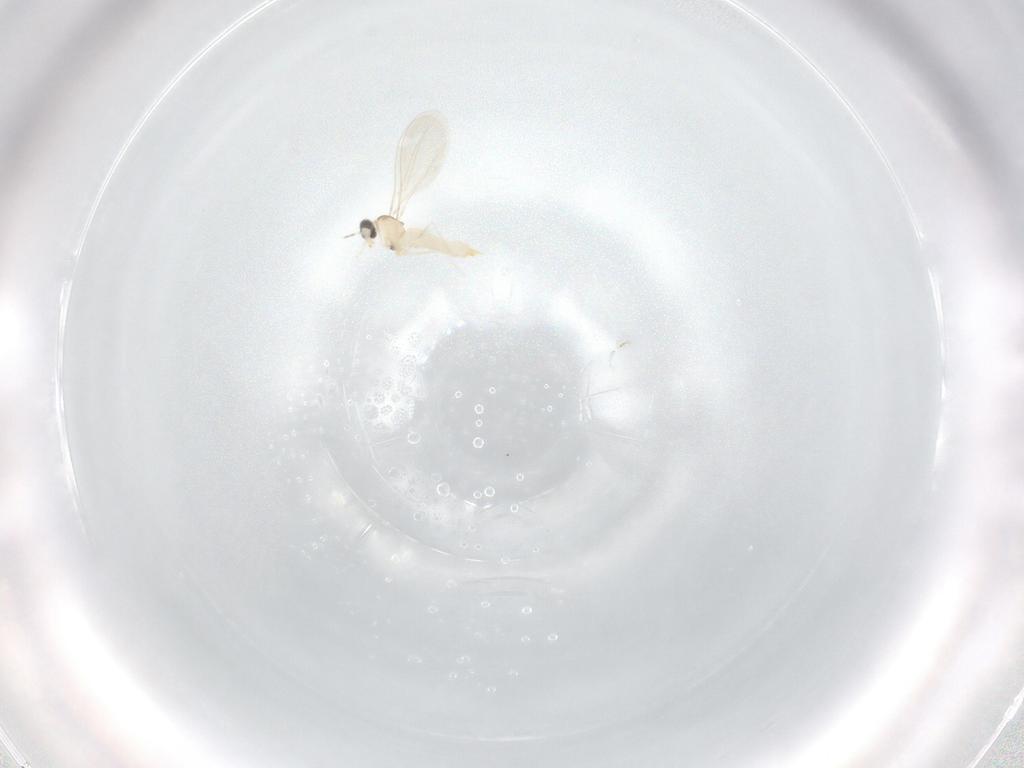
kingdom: Animalia
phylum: Arthropoda
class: Insecta
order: Diptera
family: Cecidomyiidae
